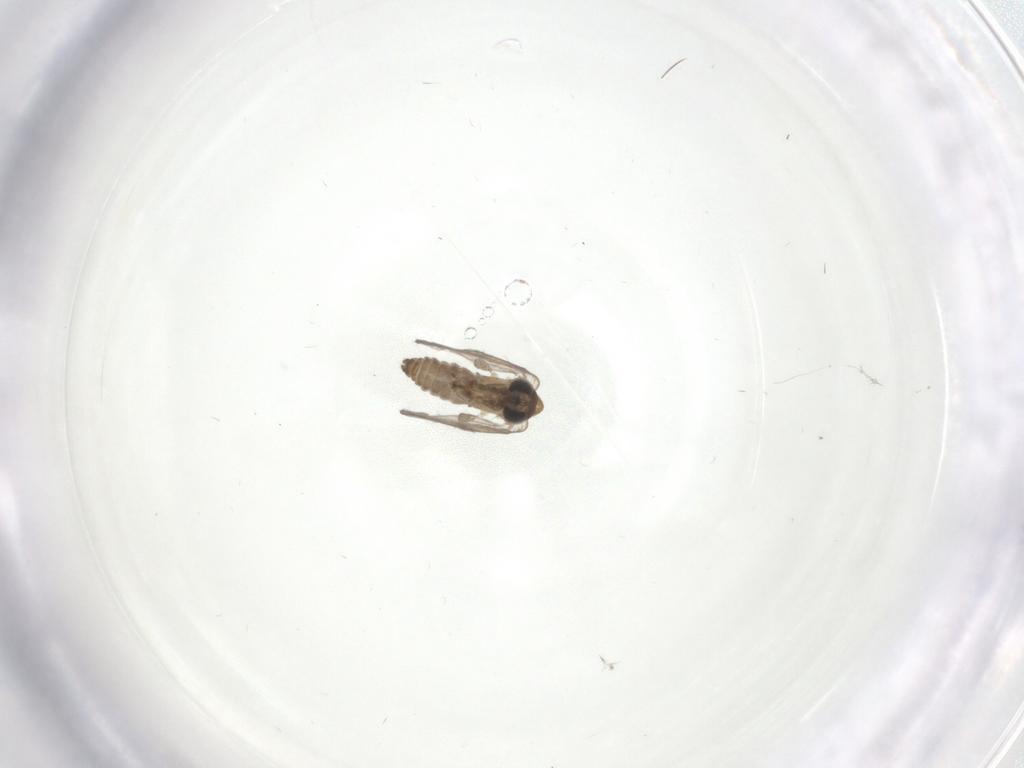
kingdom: Animalia
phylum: Arthropoda
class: Insecta
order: Diptera
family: Psychodidae
